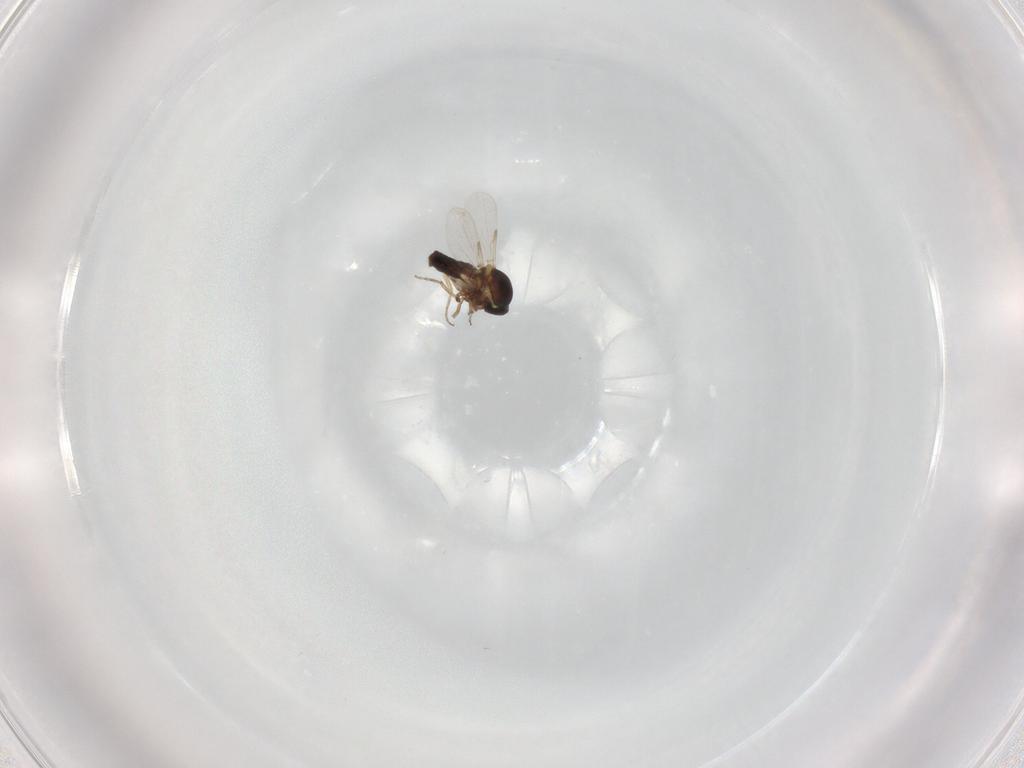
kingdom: Animalia
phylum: Arthropoda
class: Insecta
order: Diptera
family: Ceratopogonidae
